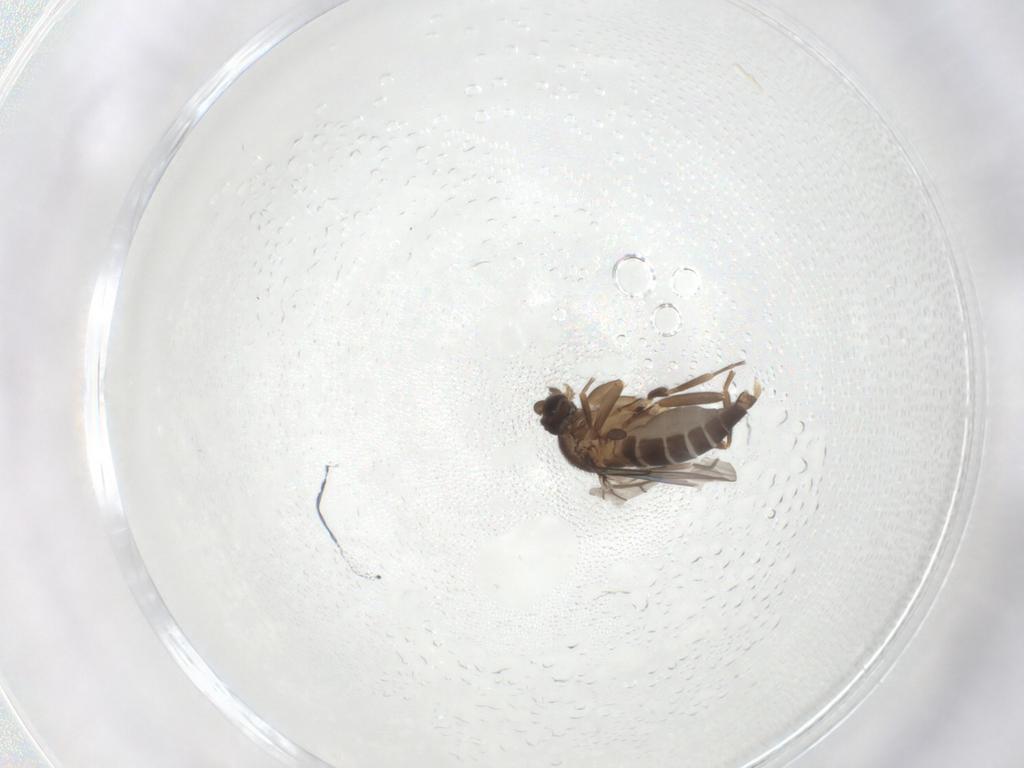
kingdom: Animalia
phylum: Arthropoda
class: Insecta
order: Diptera
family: Phoridae
